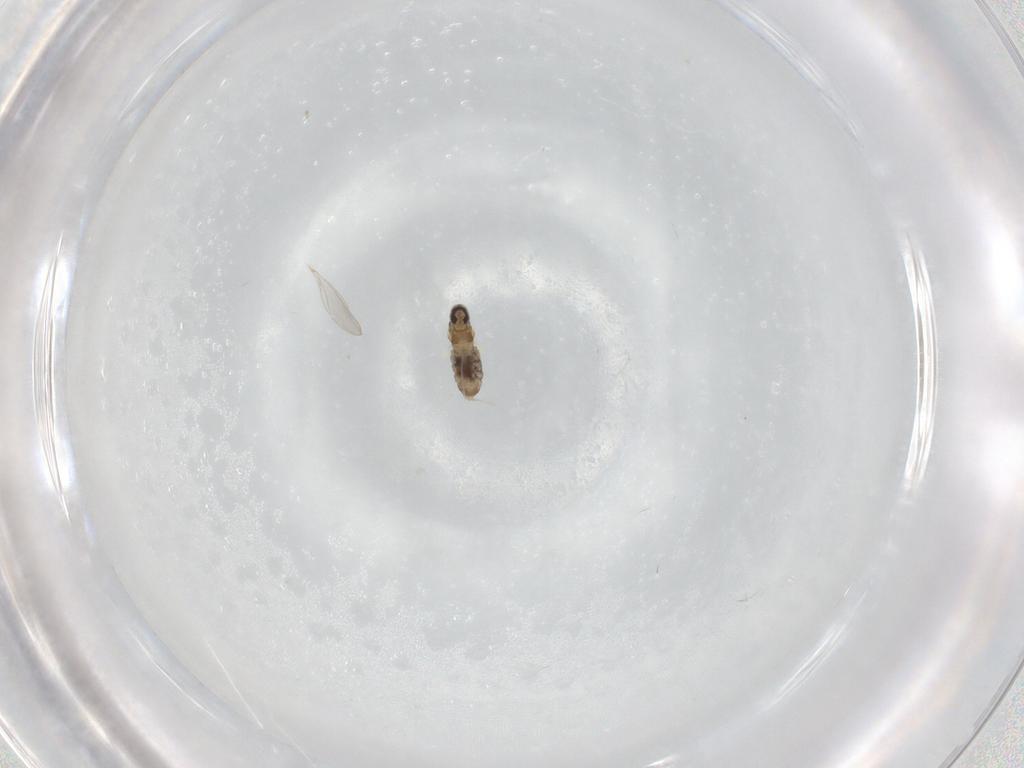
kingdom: Animalia
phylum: Arthropoda
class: Insecta
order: Diptera
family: Cecidomyiidae
